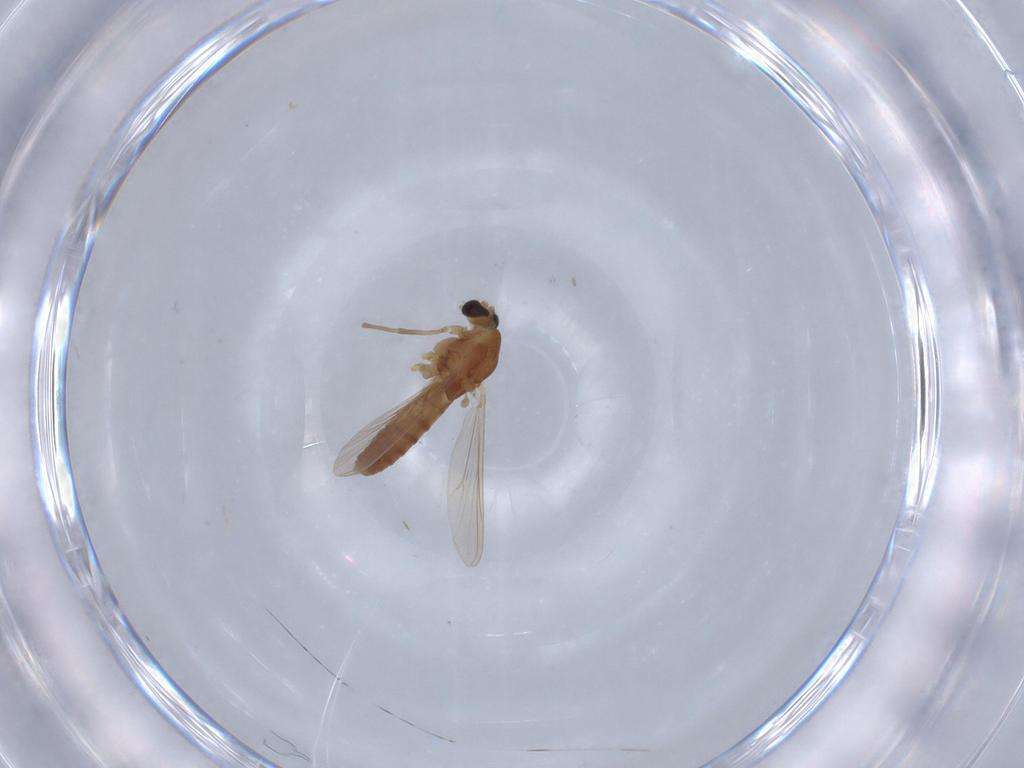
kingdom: Animalia
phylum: Arthropoda
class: Insecta
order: Diptera
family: Chironomidae
